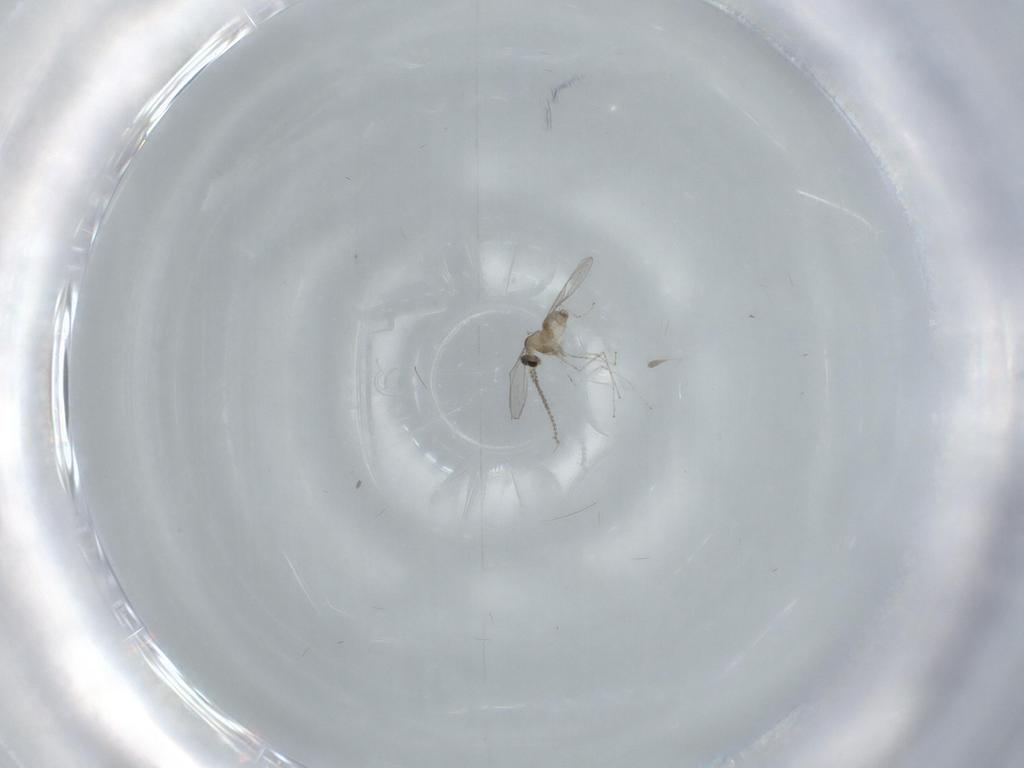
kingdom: Animalia
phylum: Arthropoda
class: Insecta
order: Diptera
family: Cecidomyiidae
